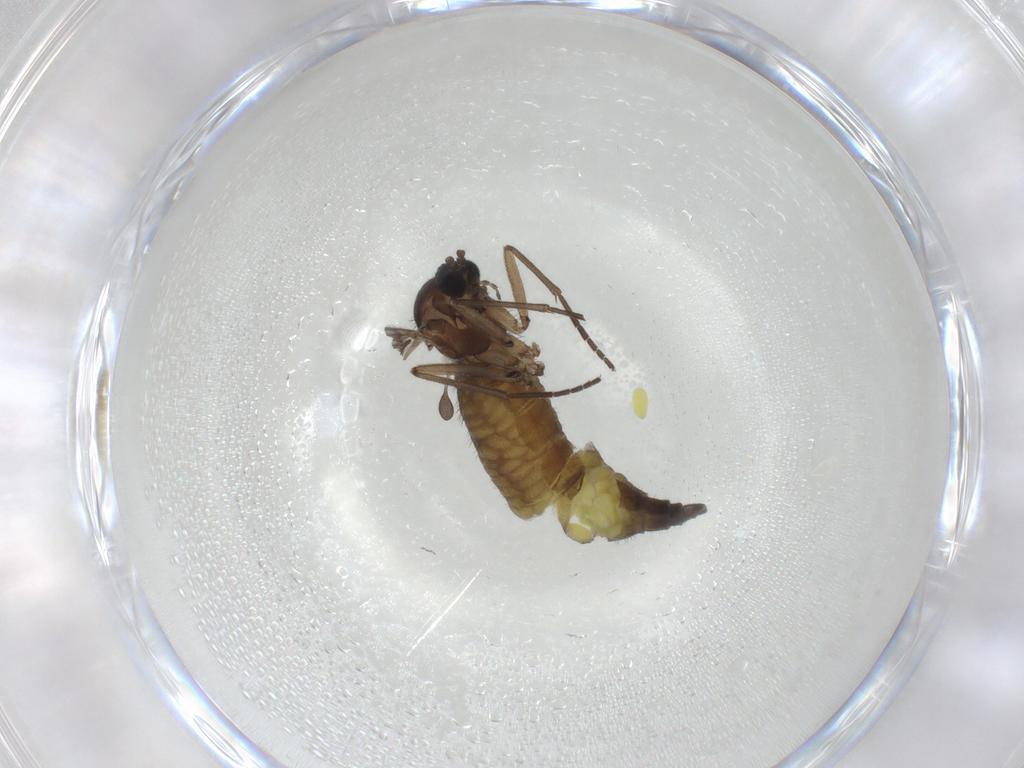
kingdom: Animalia
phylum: Arthropoda
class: Insecta
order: Diptera
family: Sciaridae
